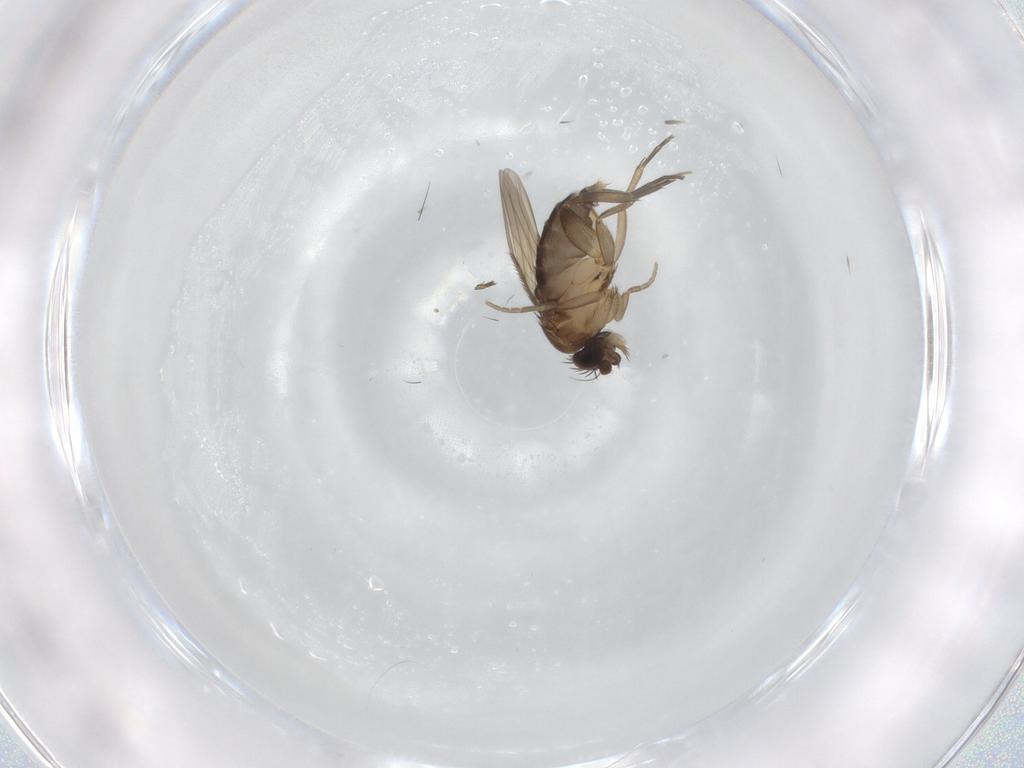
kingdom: Animalia
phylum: Arthropoda
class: Insecta
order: Diptera
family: Phoridae
